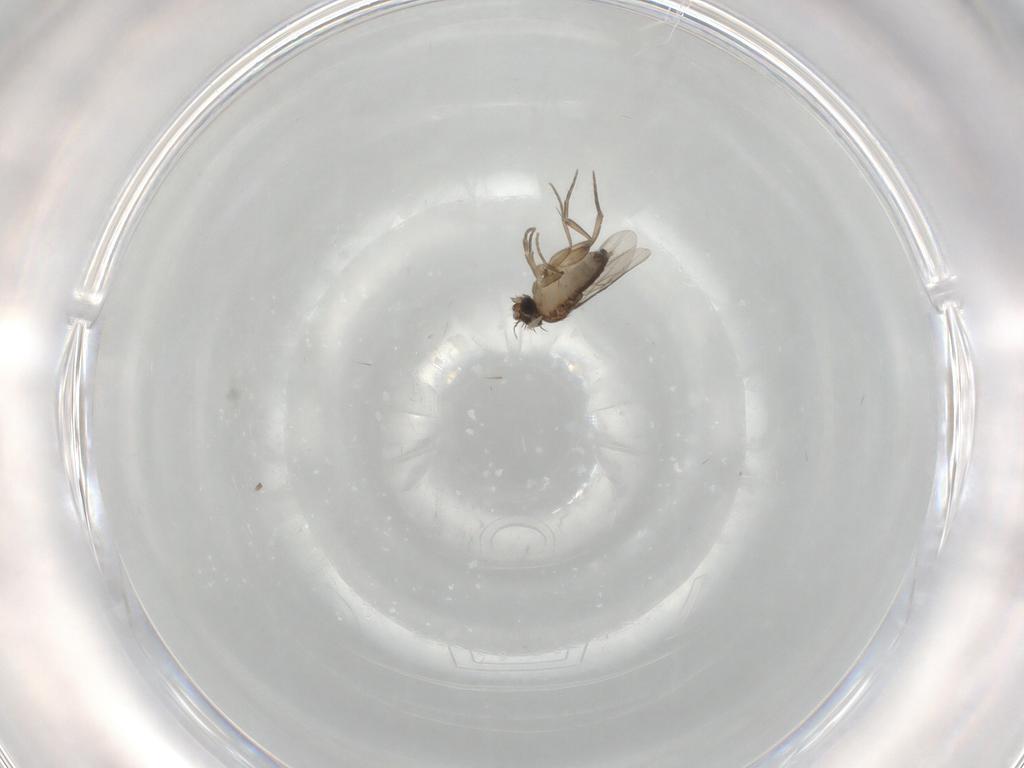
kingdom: Animalia
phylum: Arthropoda
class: Insecta
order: Diptera
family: Phoridae
